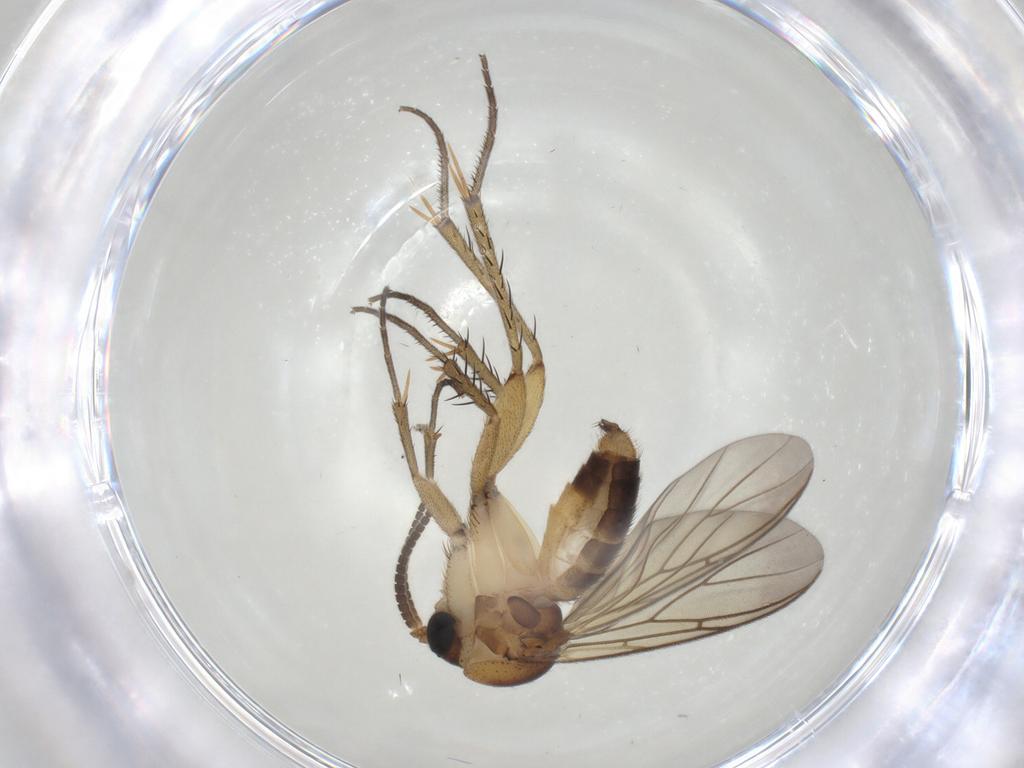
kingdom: Animalia
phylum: Arthropoda
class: Insecta
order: Diptera
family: Mycetophilidae
